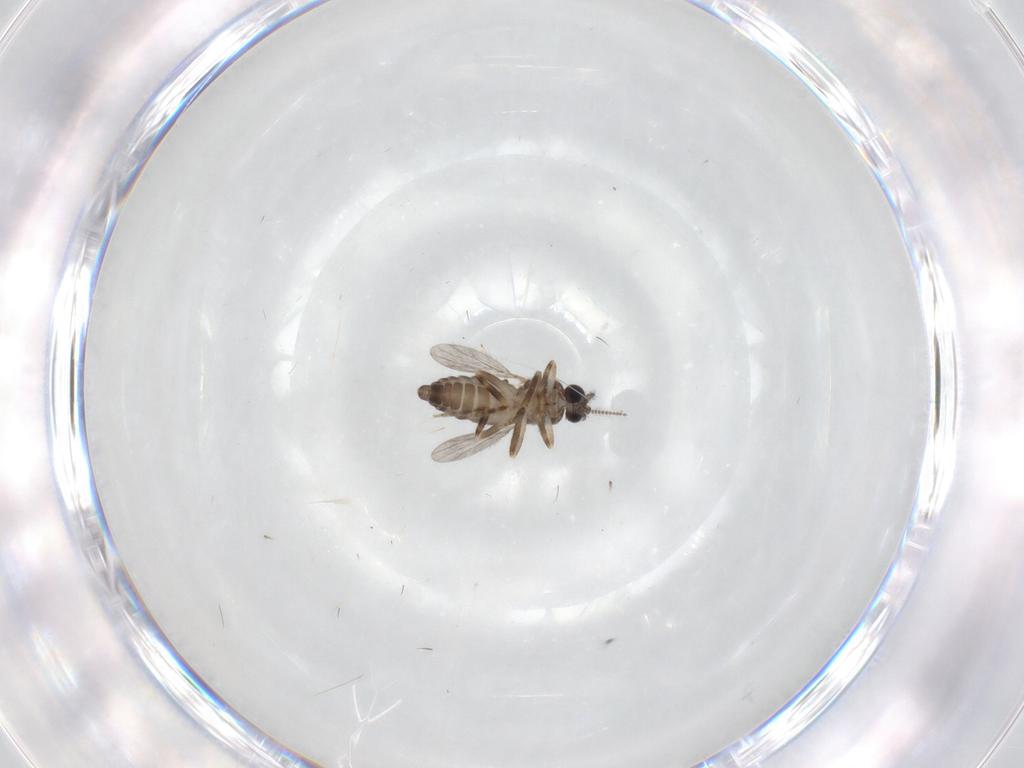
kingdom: Animalia
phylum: Arthropoda
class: Insecta
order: Diptera
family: Ceratopogonidae
